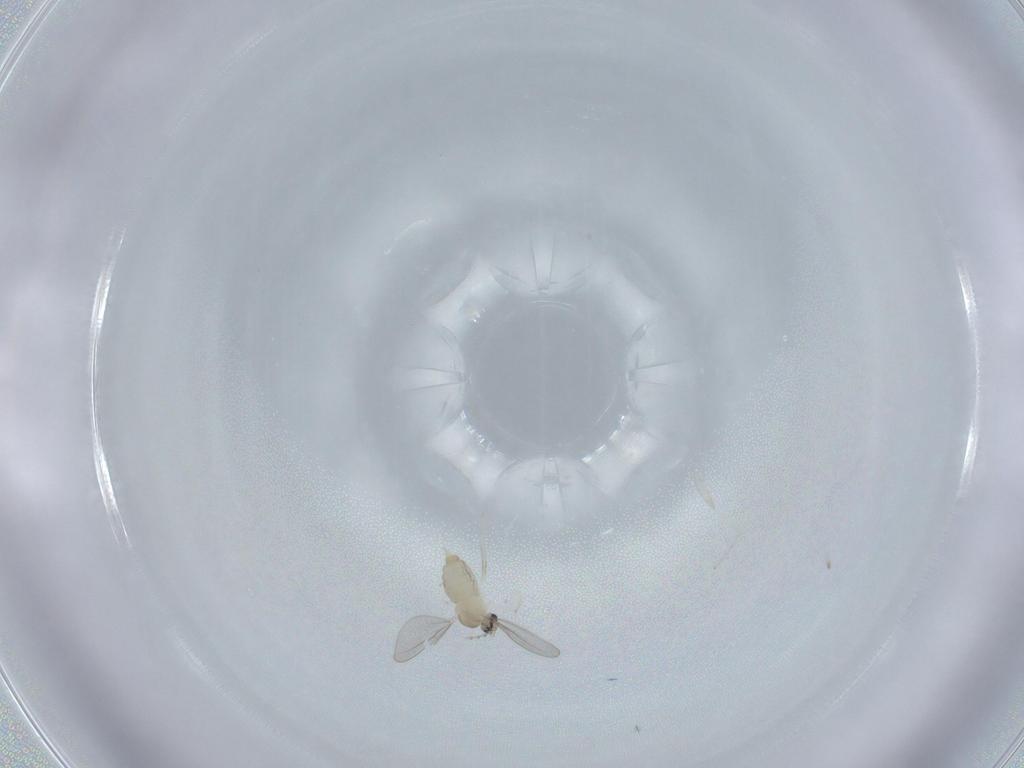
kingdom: Animalia
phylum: Arthropoda
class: Insecta
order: Diptera
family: Cecidomyiidae
